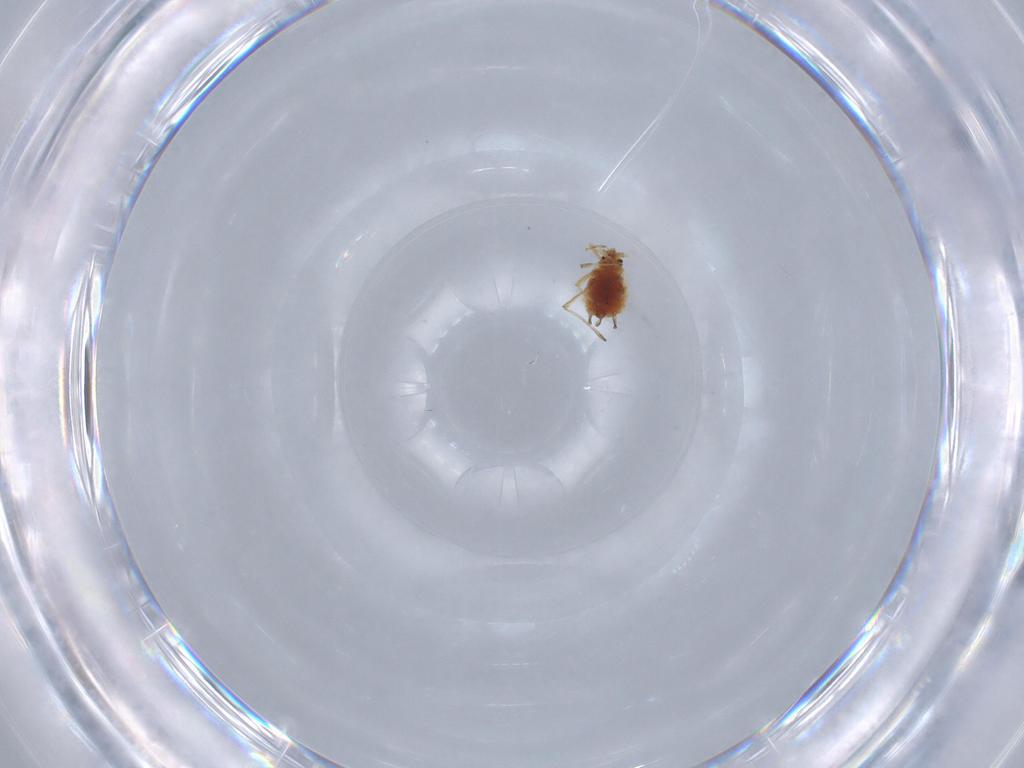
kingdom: Animalia
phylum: Arthropoda
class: Insecta
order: Hemiptera
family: Aphididae
